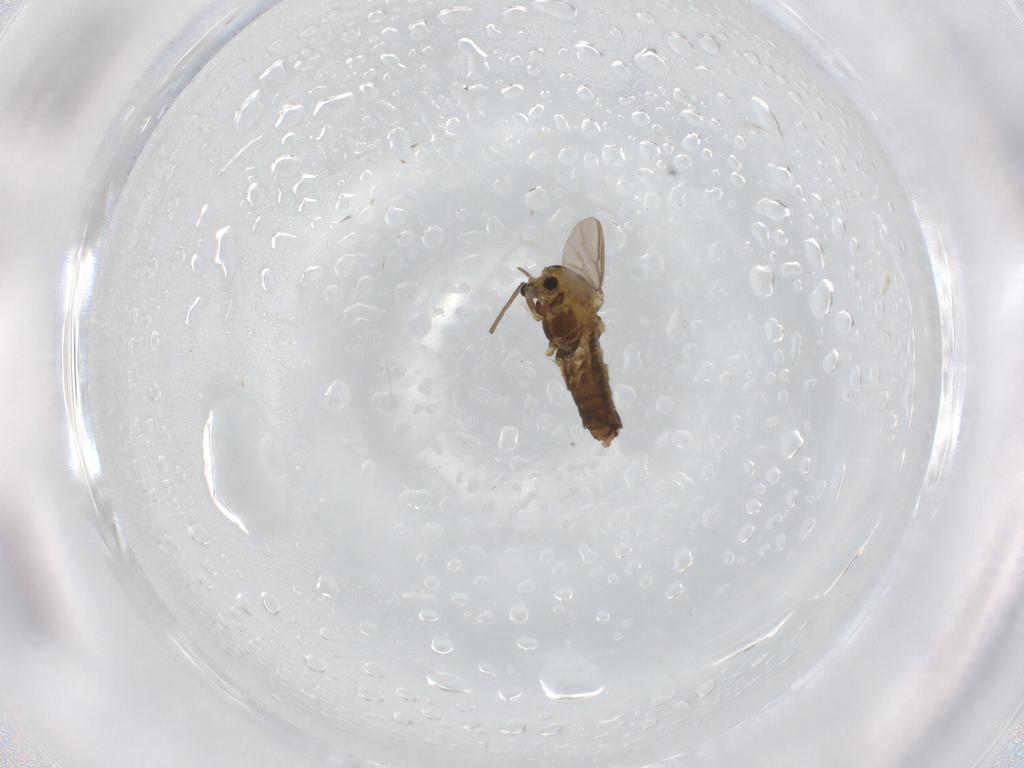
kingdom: Animalia
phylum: Arthropoda
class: Insecta
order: Diptera
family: Chironomidae
